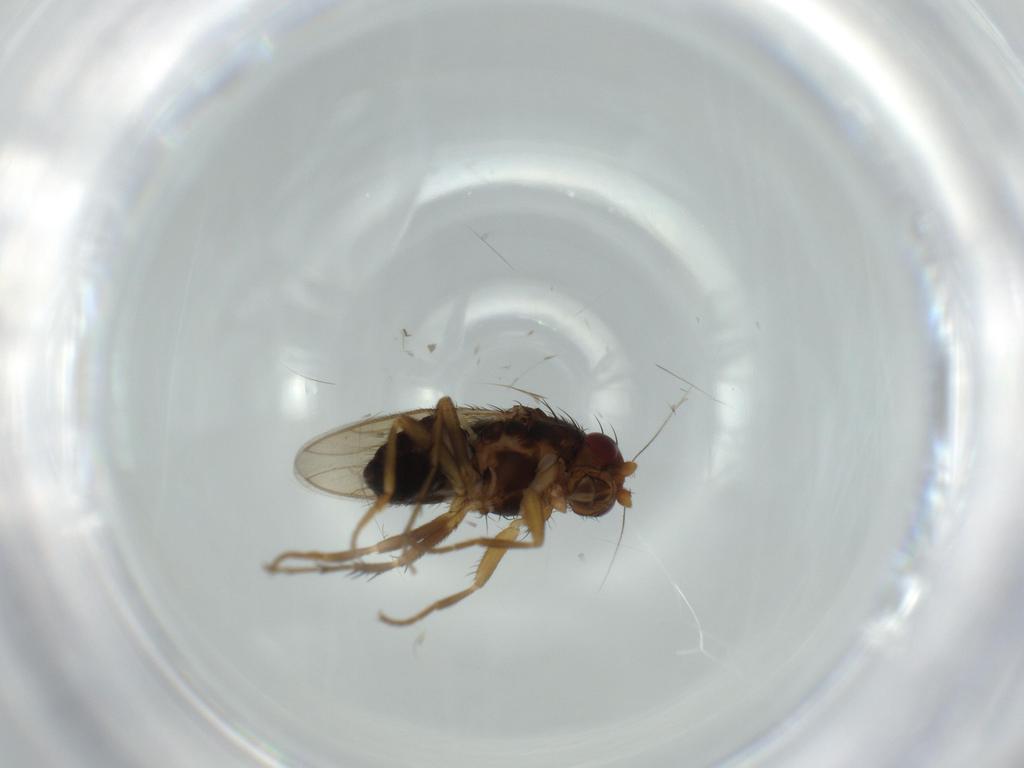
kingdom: Animalia
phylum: Arthropoda
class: Insecta
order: Diptera
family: Sphaeroceridae
